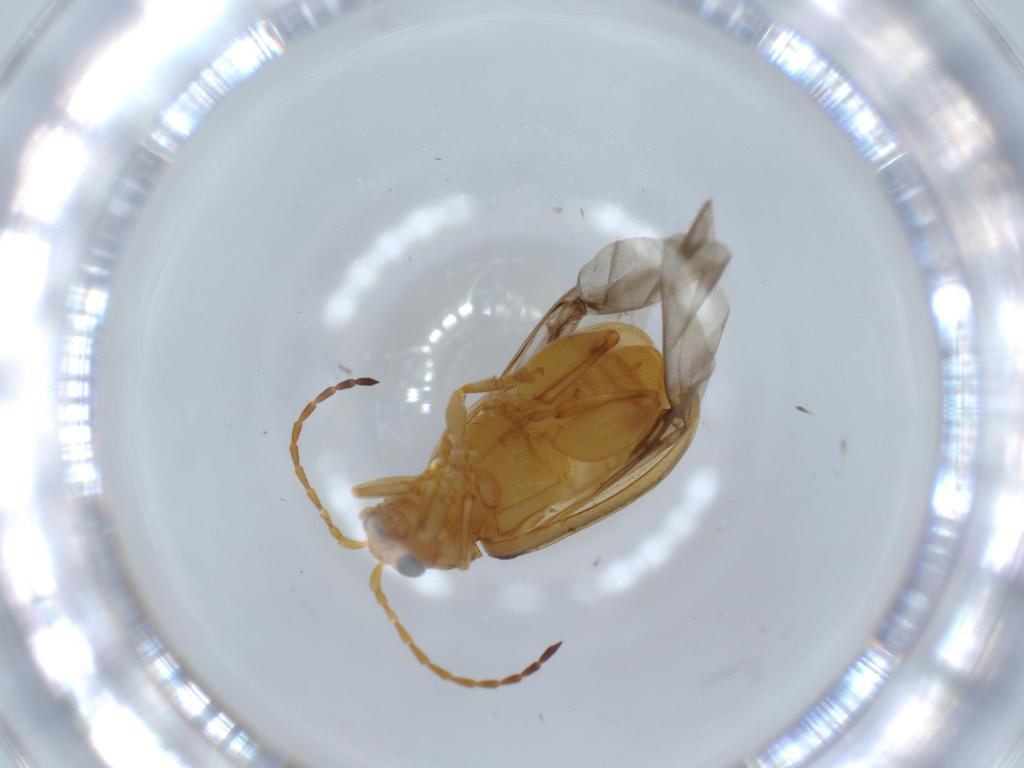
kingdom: Animalia
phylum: Arthropoda
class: Insecta
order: Coleoptera
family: Chrysomelidae
